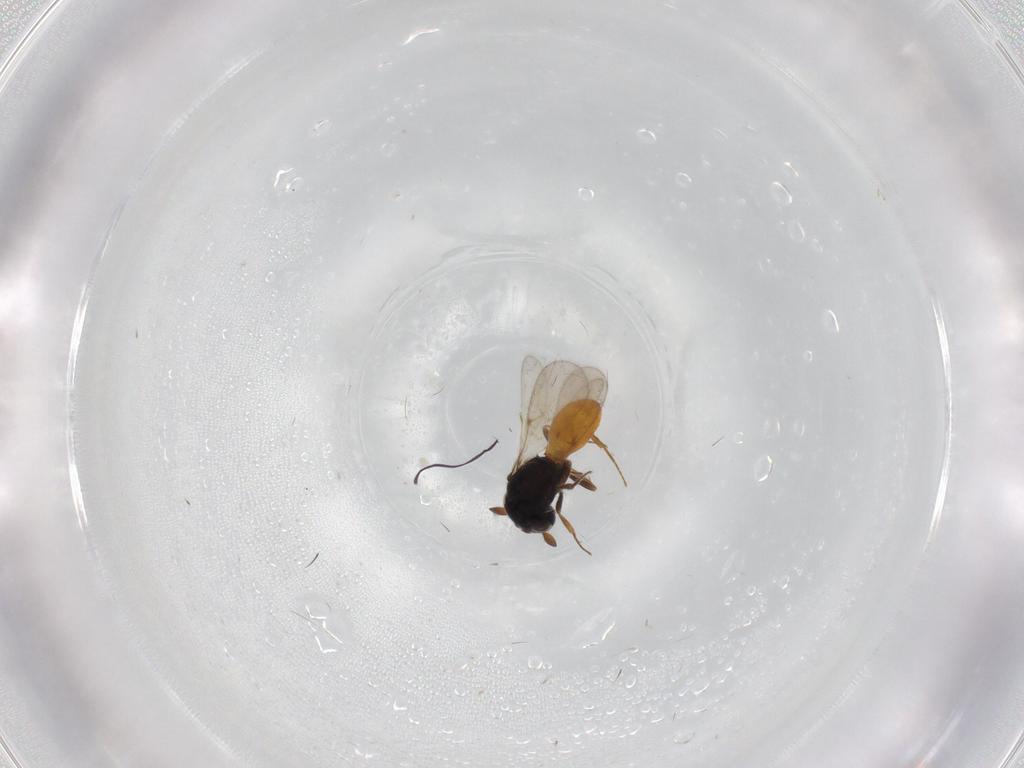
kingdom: Animalia
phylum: Arthropoda
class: Insecta
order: Hymenoptera
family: Scelionidae
